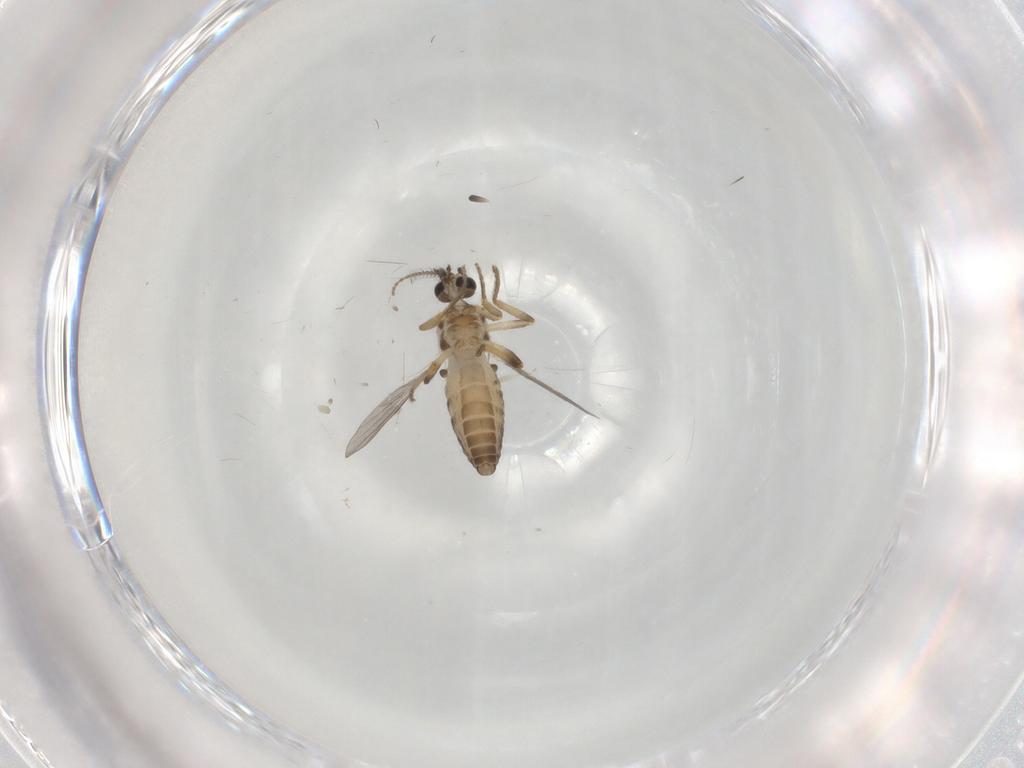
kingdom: Animalia
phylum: Arthropoda
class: Insecta
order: Diptera
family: Ceratopogonidae
